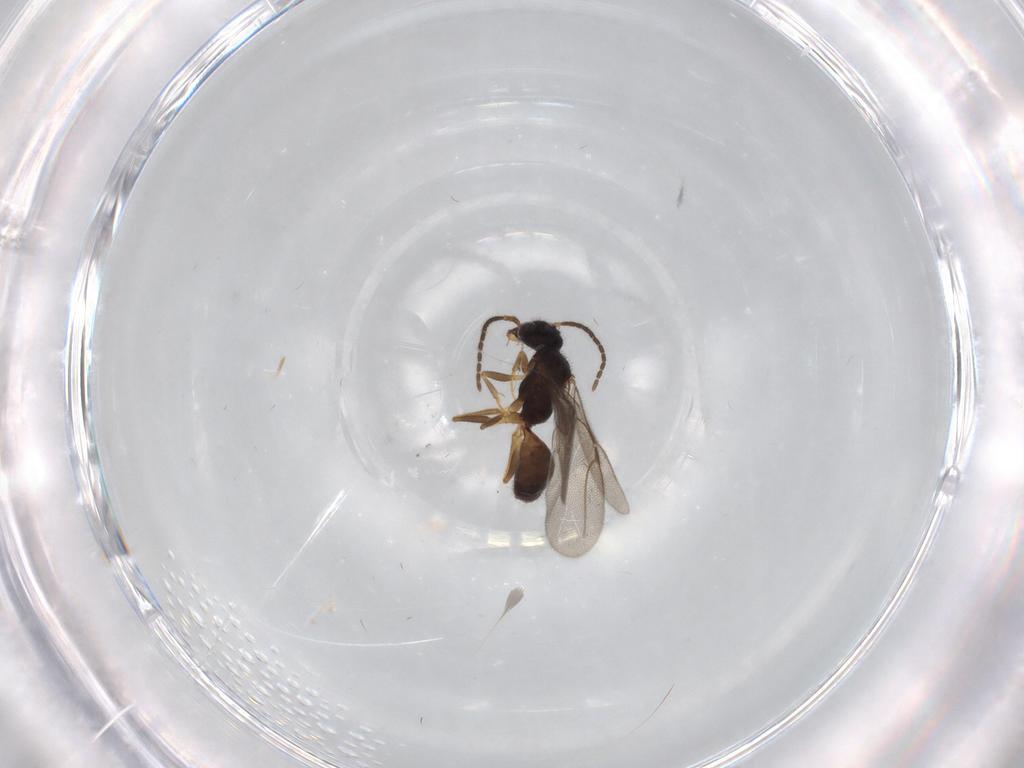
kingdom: Animalia
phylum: Arthropoda
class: Insecta
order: Hymenoptera
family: Bethylidae
